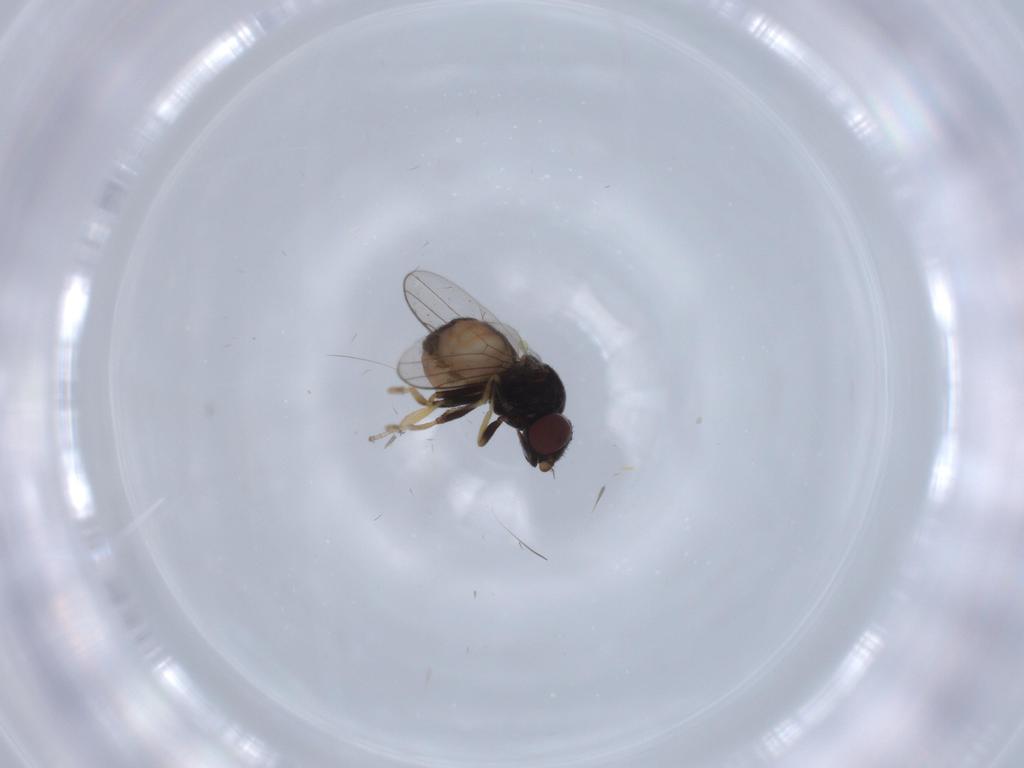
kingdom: Animalia
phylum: Arthropoda
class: Insecta
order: Diptera
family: Chloropidae
